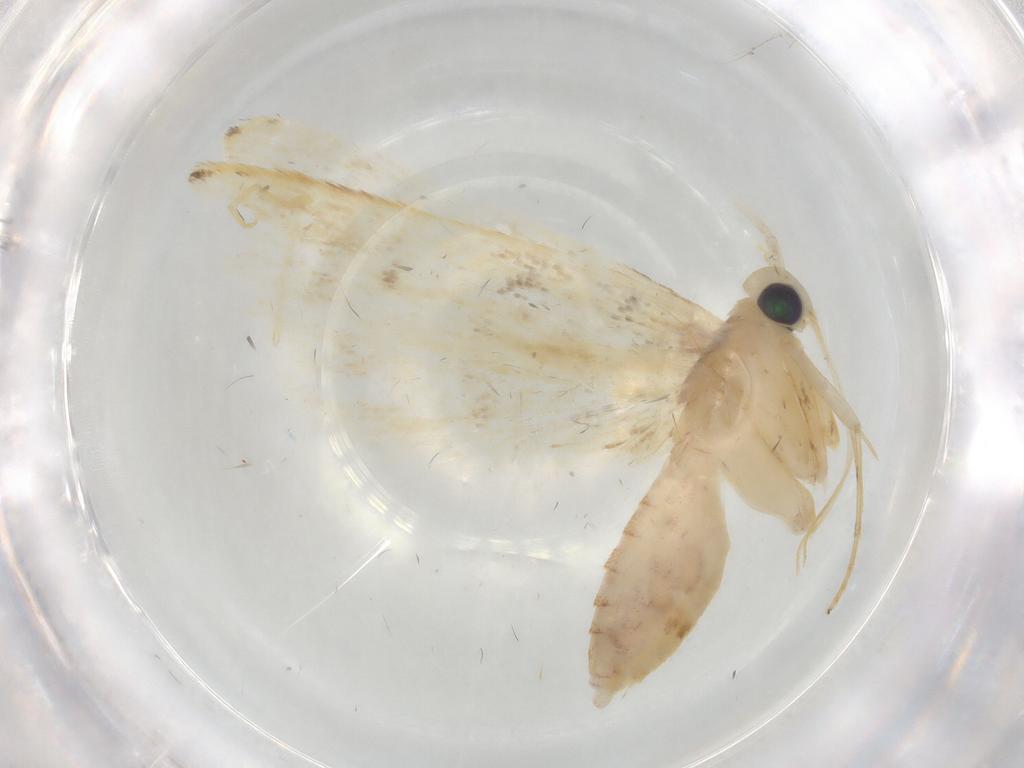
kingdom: Animalia
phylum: Arthropoda
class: Insecta
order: Lepidoptera
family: Lecithoceridae
